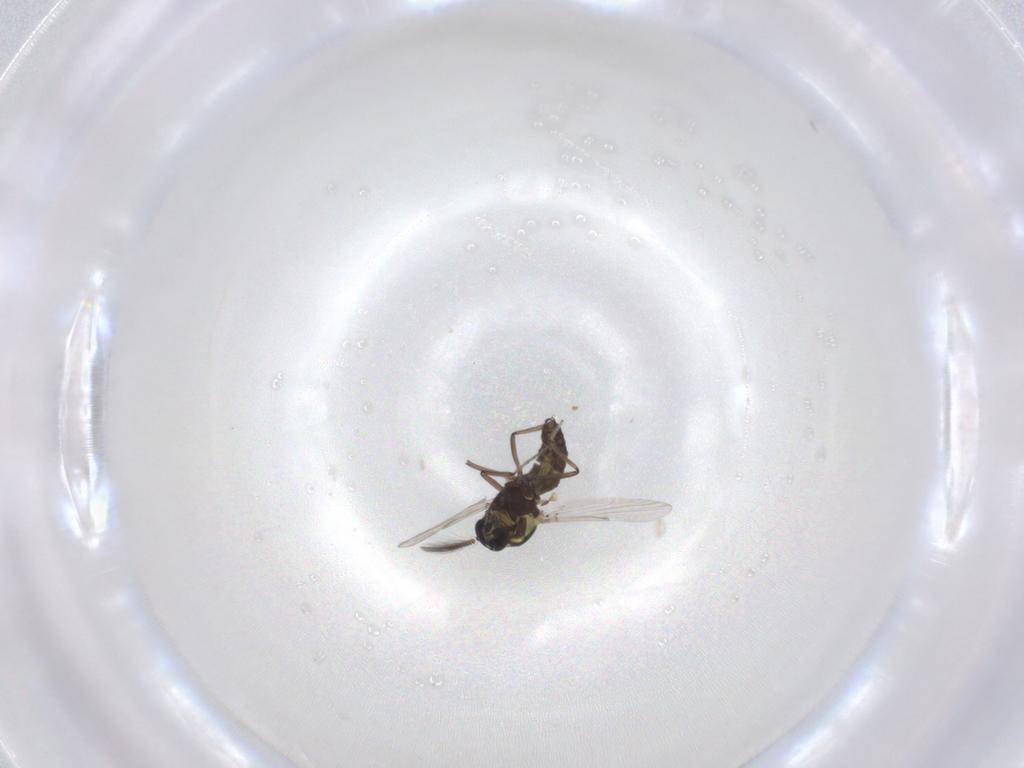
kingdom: Animalia
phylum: Arthropoda
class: Insecta
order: Diptera
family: Ceratopogonidae
